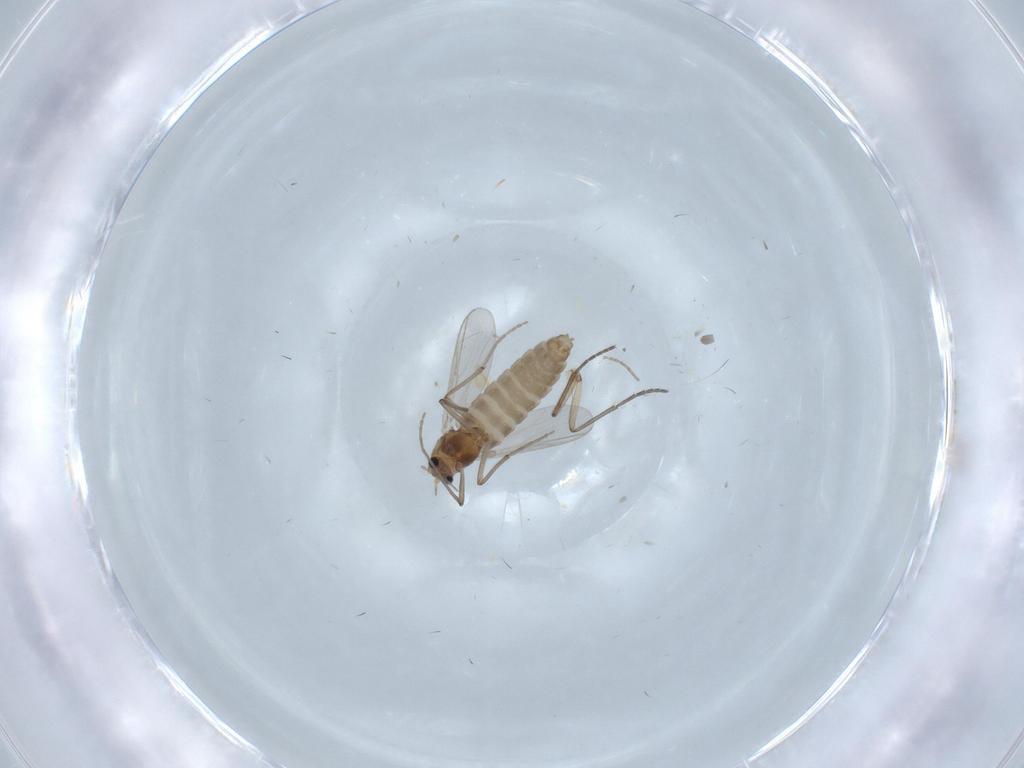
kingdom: Animalia
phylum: Arthropoda
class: Insecta
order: Diptera
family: Chironomidae
